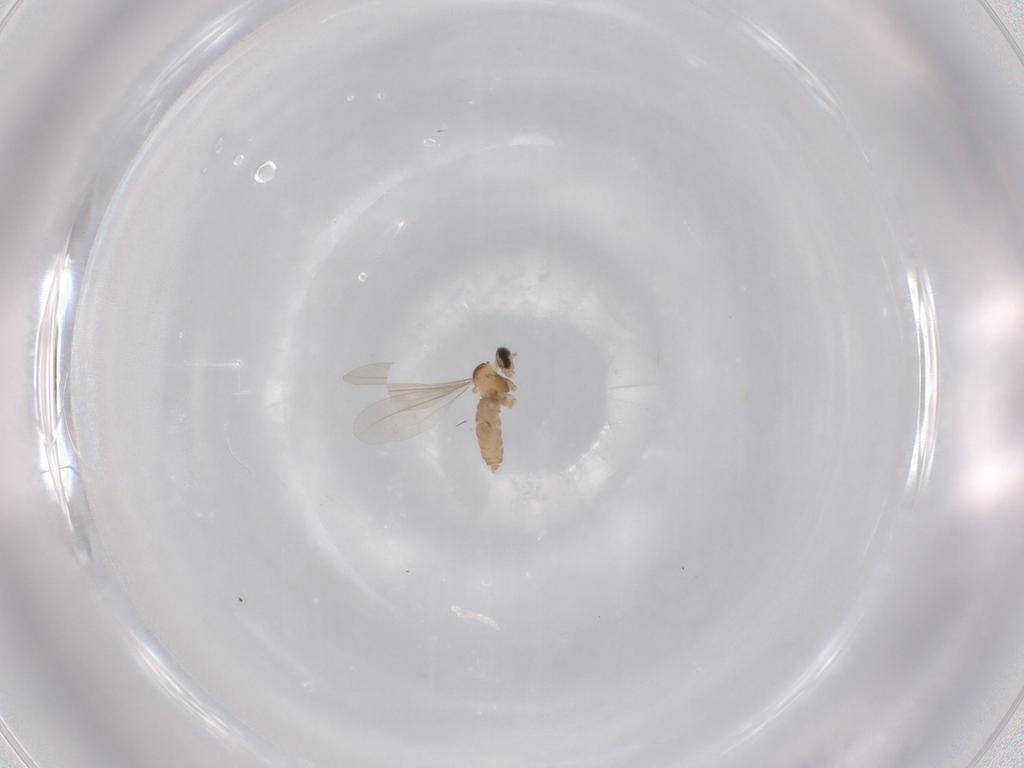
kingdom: Animalia
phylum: Arthropoda
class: Insecta
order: Diptera
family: Cecidomyiidae
